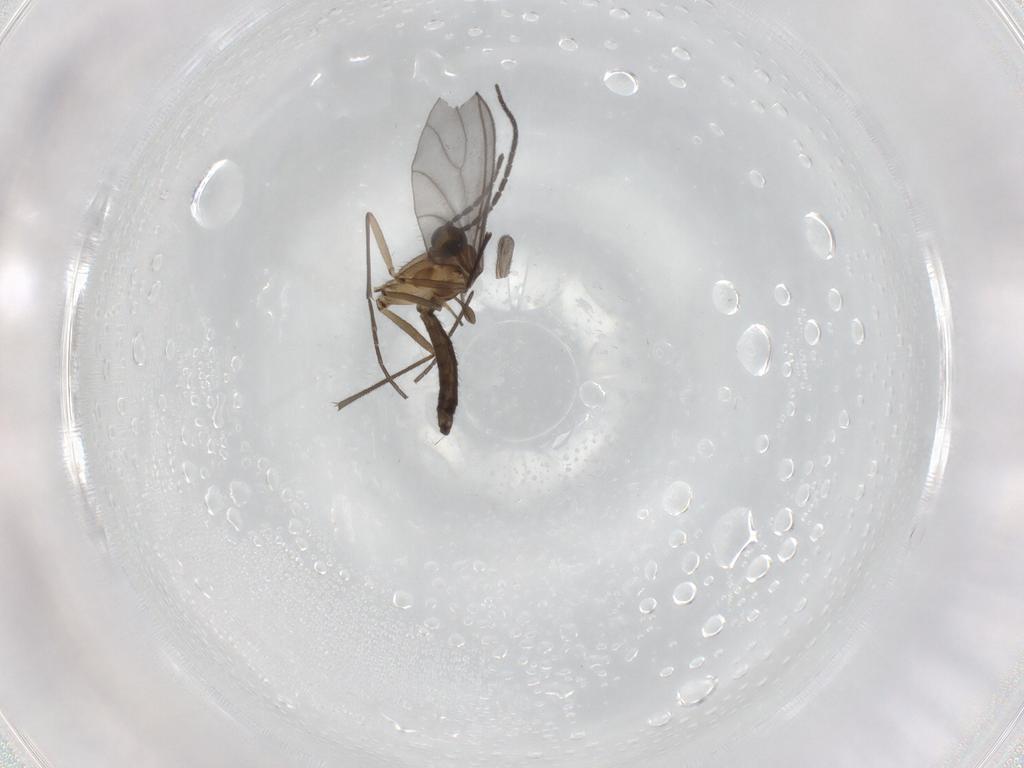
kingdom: Animalia
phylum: Arthropoda
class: Insecta
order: Diptera
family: Sciaridae
